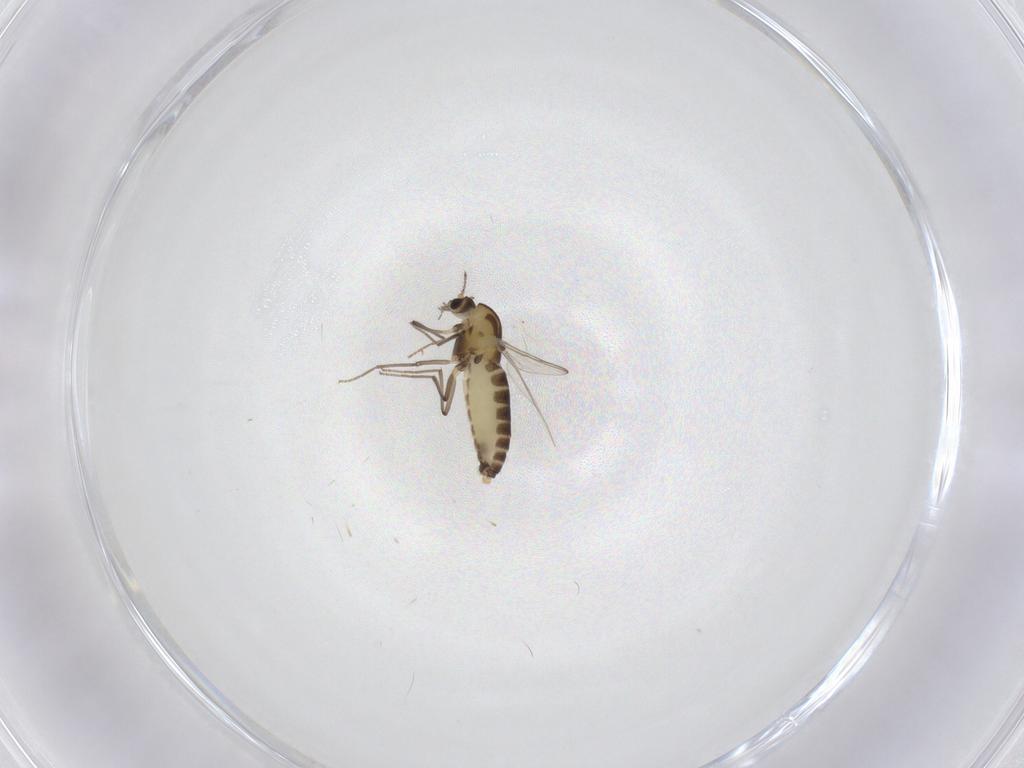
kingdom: Animalia
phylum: Arthropoda
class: Insecta
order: Diptera
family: Chironomidae
